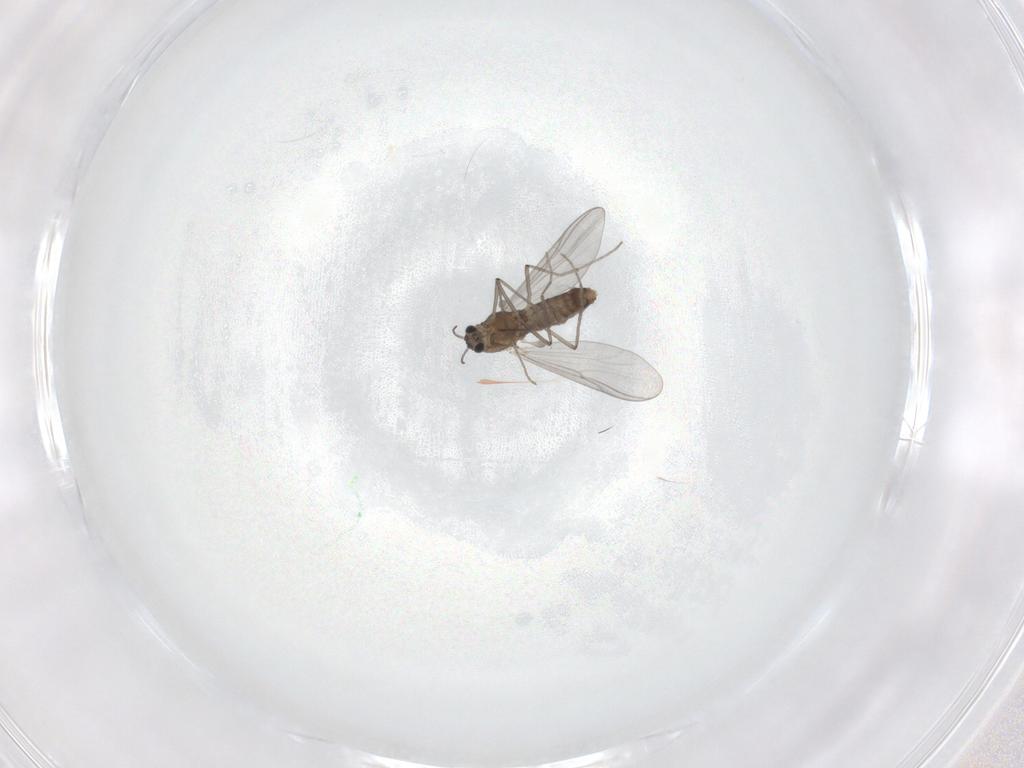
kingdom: Animalia
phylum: Arthropoda
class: Insecta
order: Diptera
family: Chironomidae
